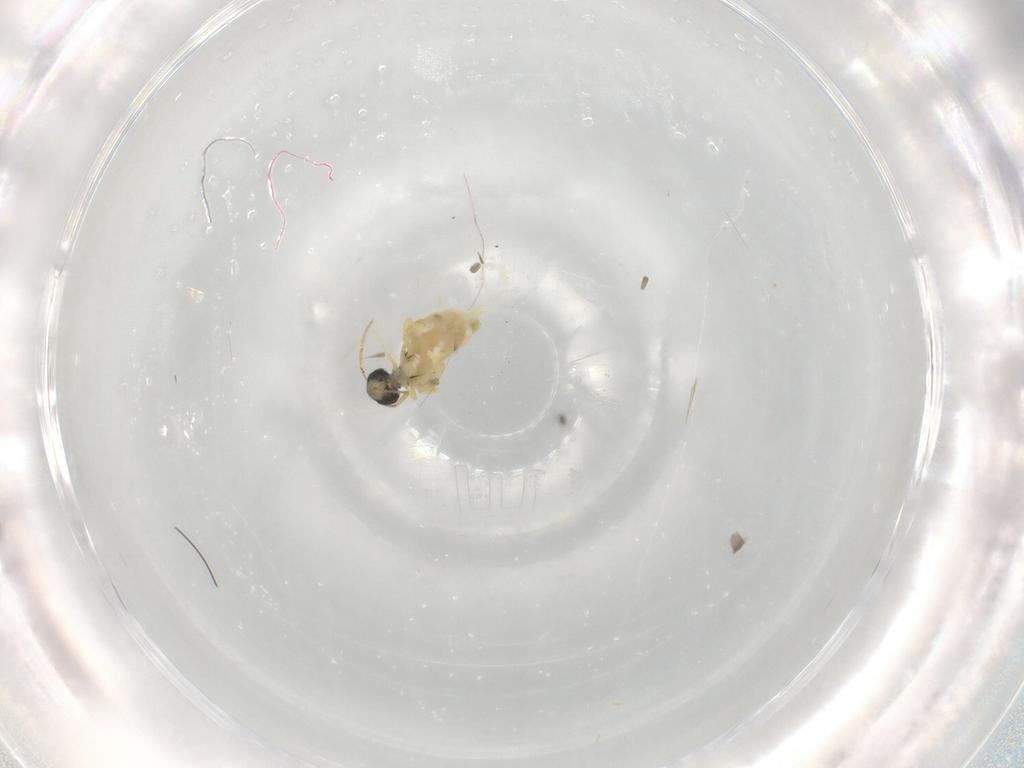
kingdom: Animalia
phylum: Arthropoda
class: Collembola
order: Symphypleona
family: Bourletiellidae
